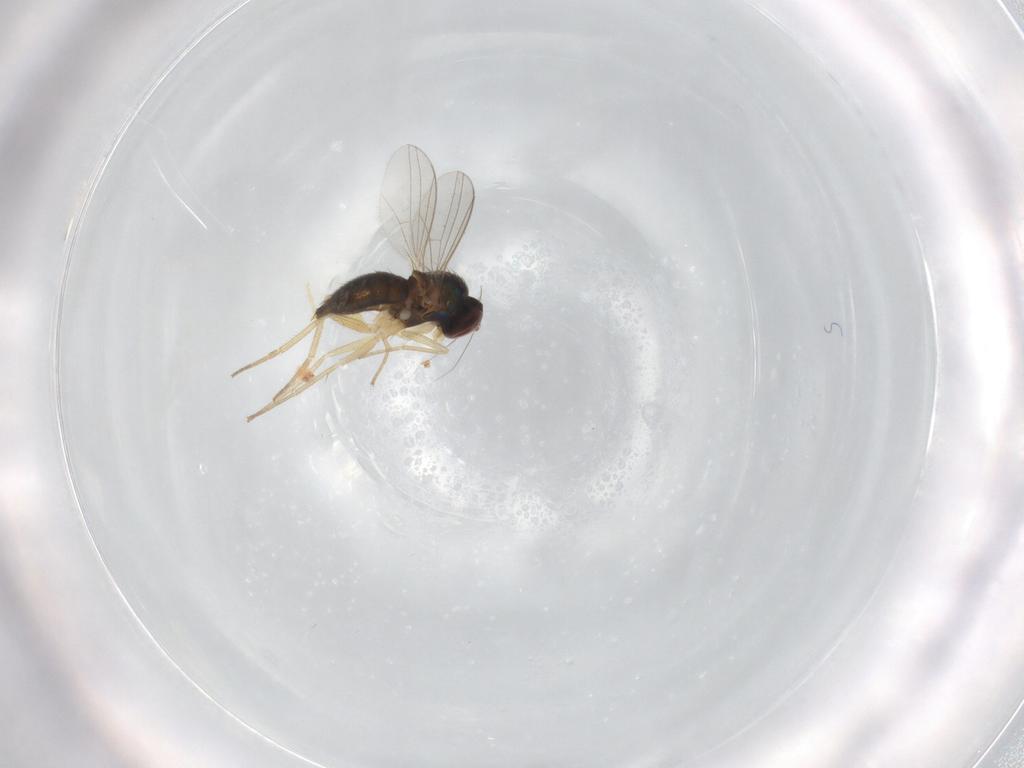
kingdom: Animalia
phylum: Arthropoda
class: Insecta
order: Diptera
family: Dolichopodidae
